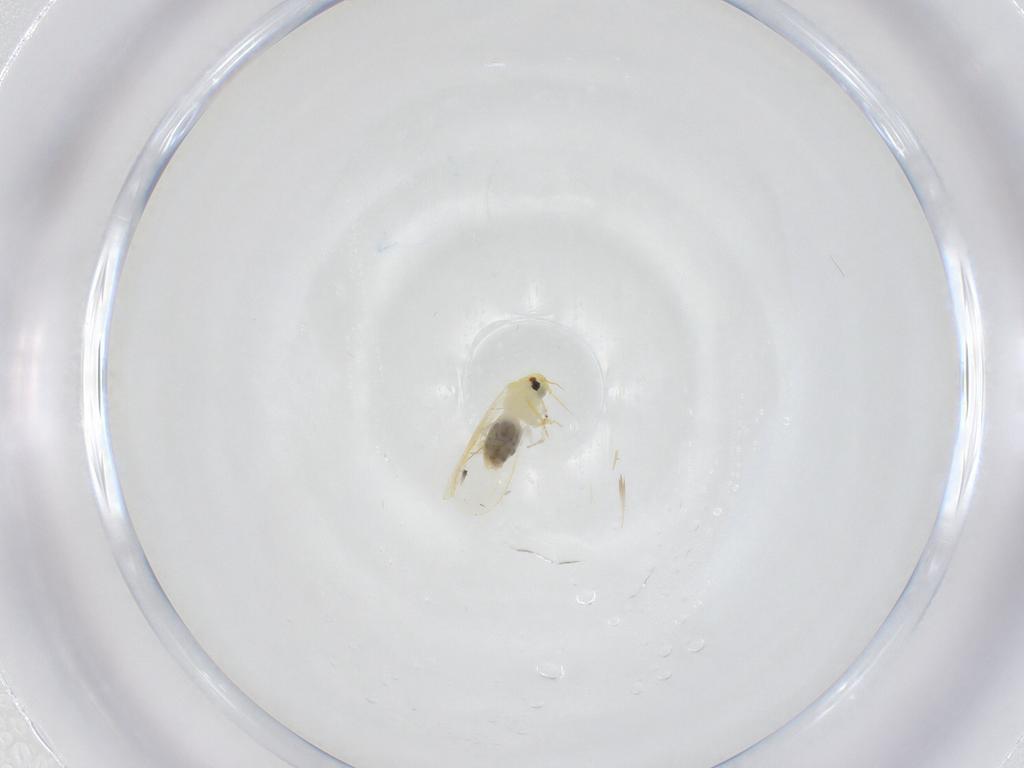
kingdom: Animalia
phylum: Arthropoda
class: Insecta
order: Hemiptera
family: Aleyrodidae
